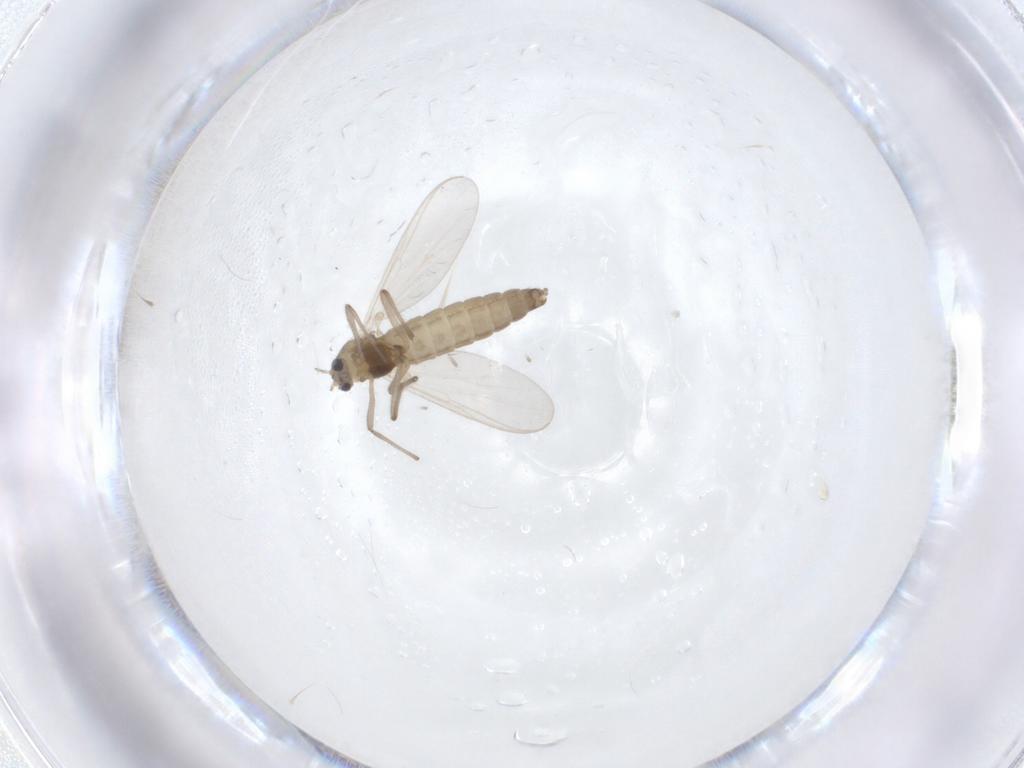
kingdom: Animalia
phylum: Arthropoda
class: Insecta
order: Diptera
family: Chironomidae
